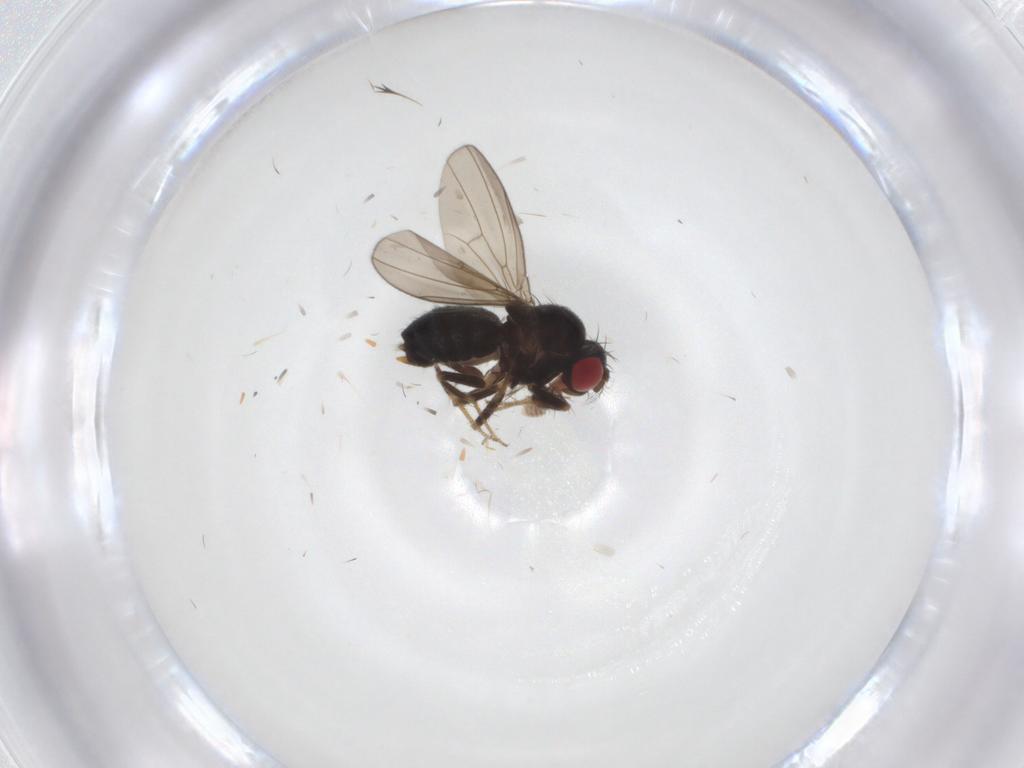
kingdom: Animalia
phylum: Arthropoda
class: Insecta
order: Diptera
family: Drosophilidae
